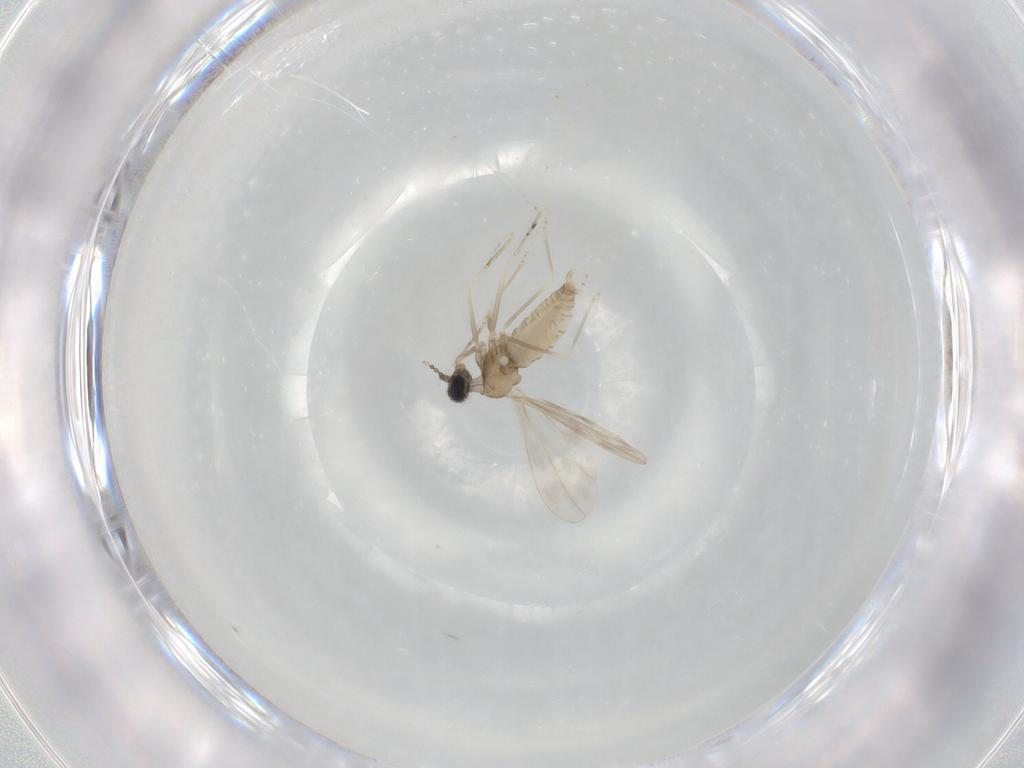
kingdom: Animalia
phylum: Arthropoda
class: Insecta
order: Diptera
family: Cecidomyiidae
